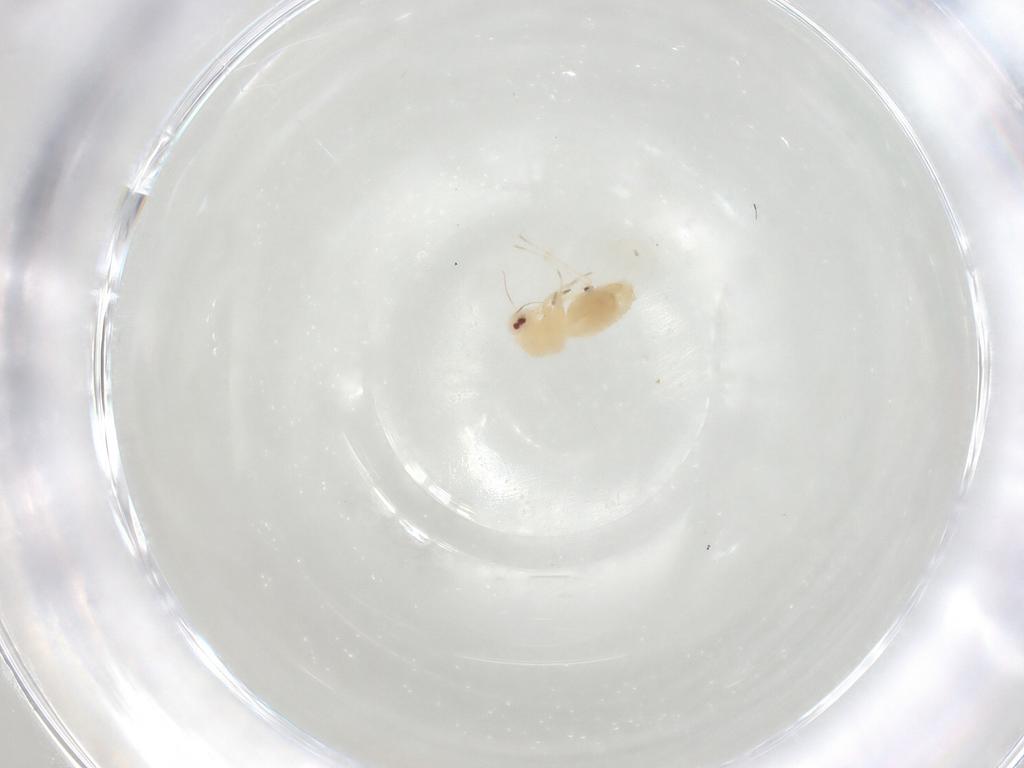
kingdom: Animalia
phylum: Arthropoda
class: Insecta
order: Hemiptera
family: Aleyrodidae
